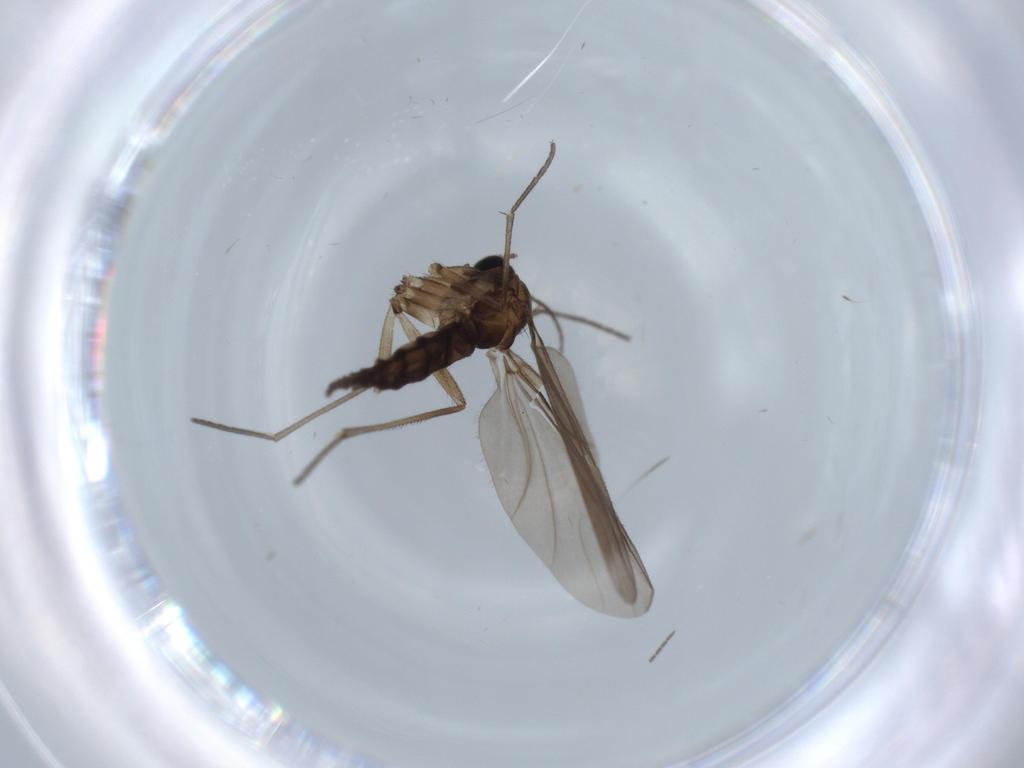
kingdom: Animalia
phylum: Arthropoda
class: Insecta
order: Diptera
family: Sciaridae
